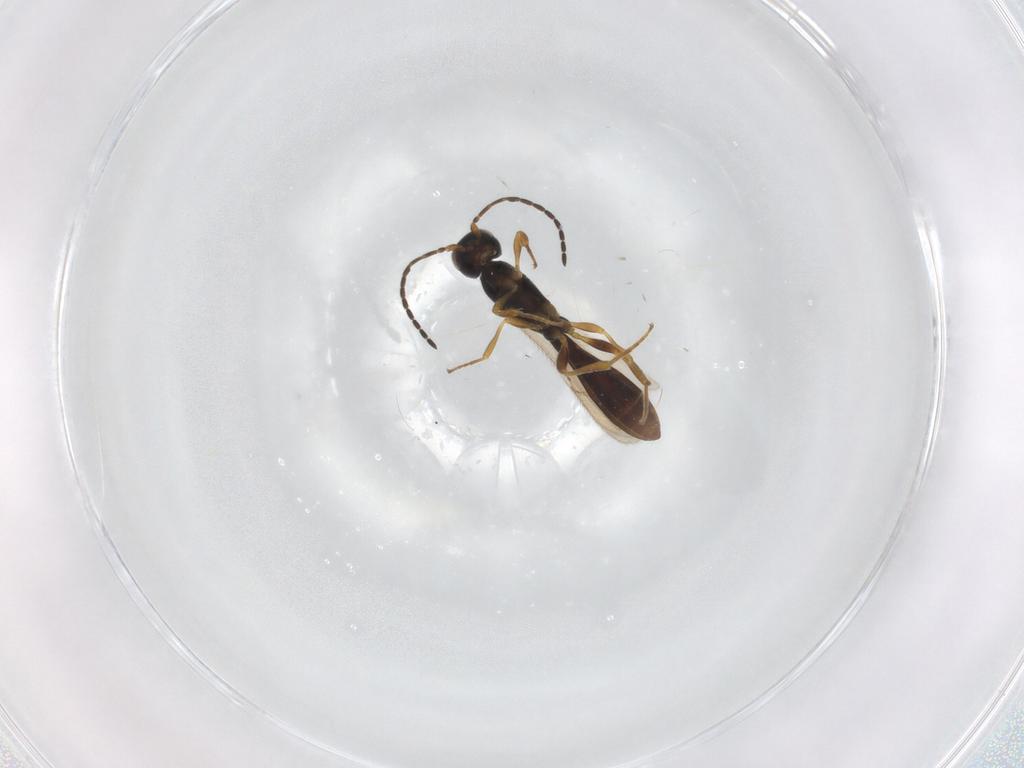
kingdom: Animalia
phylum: Arthropoda
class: Insecta
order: Hymenoptera
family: Scelionidae
